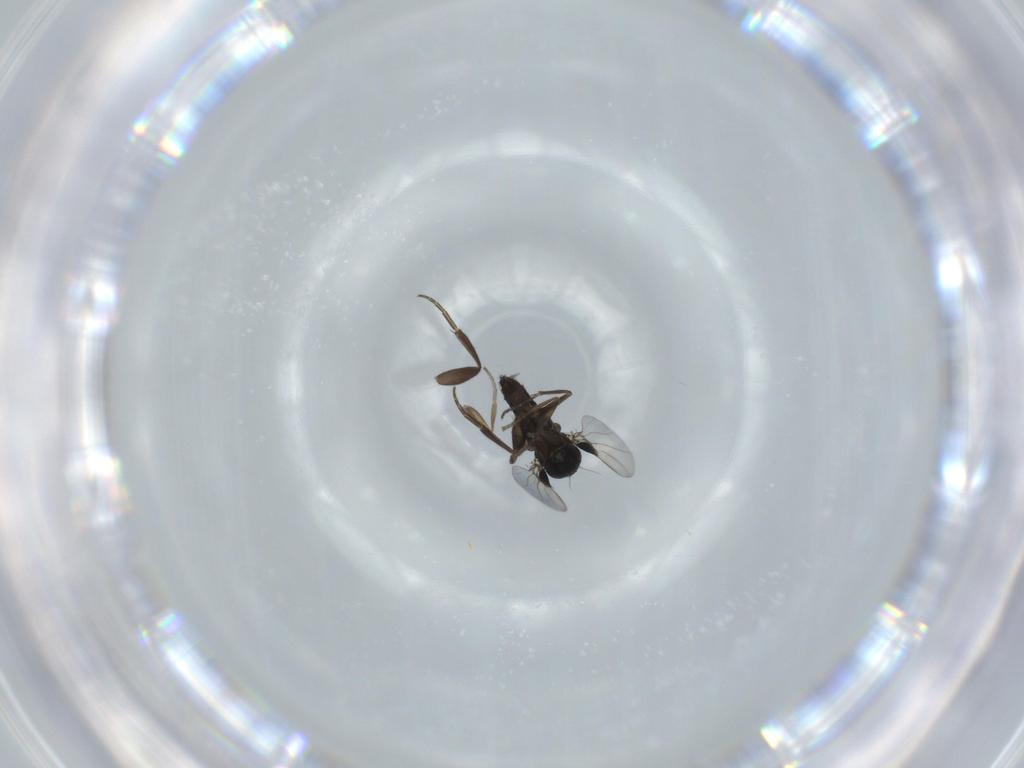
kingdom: Animalia
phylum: Arthropoda
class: Insecta
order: Diptera
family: Phoridae
